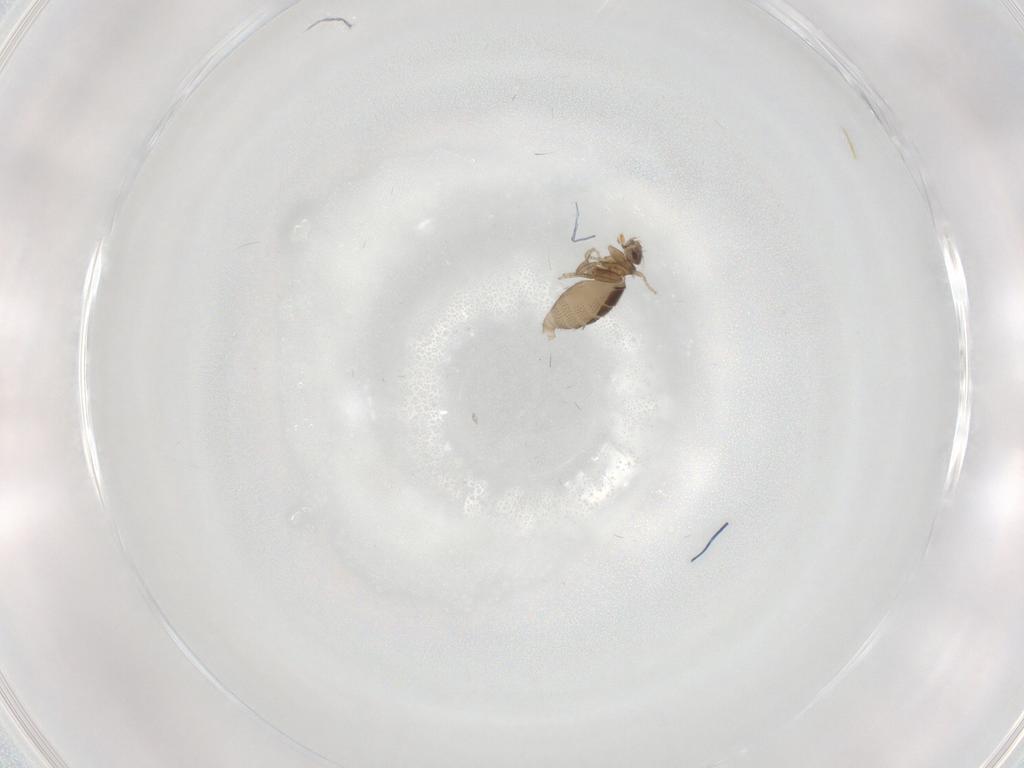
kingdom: Animalia
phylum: Arthropoda
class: Insecta
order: Diptera
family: Phoridae
